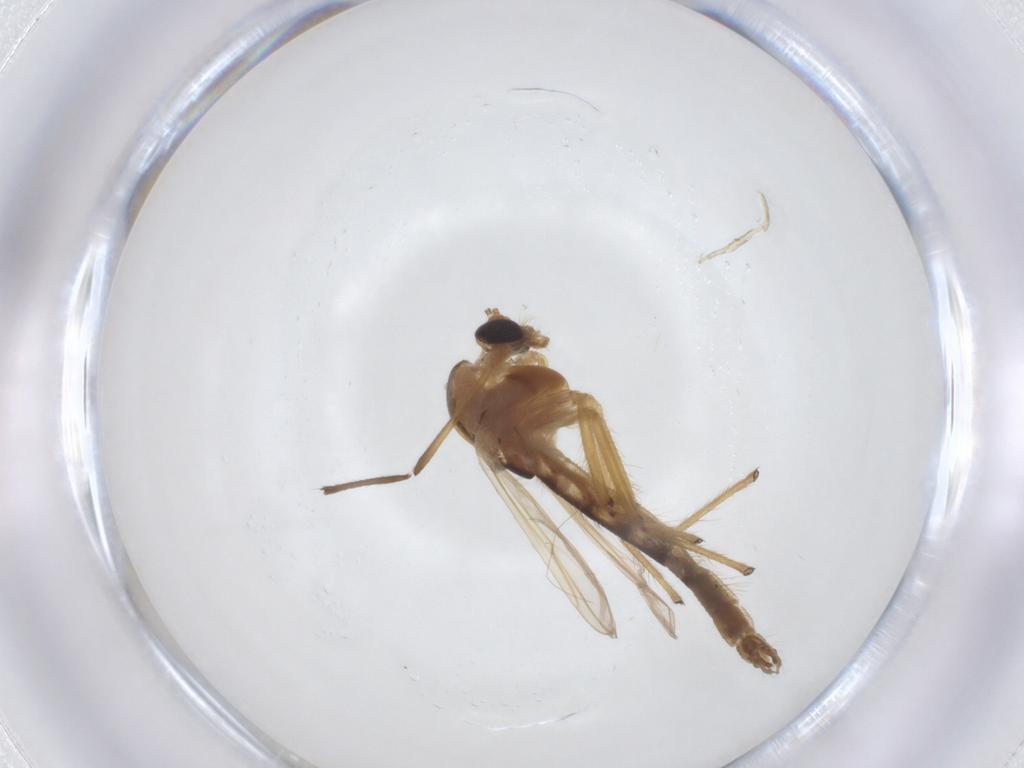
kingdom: Animalia
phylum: Arthropoda
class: Insecta
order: Diptera
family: Chironomidae
